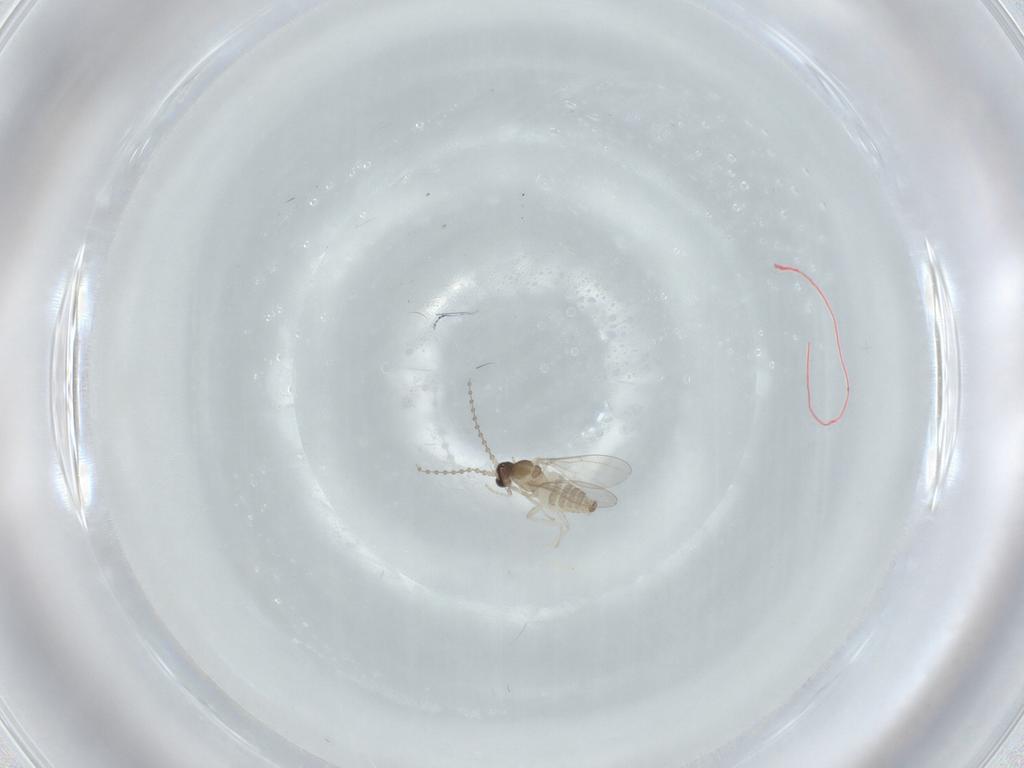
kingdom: Animalia
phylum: Arthropoda
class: Insecta
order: Diptera
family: Cecidomyiidae
